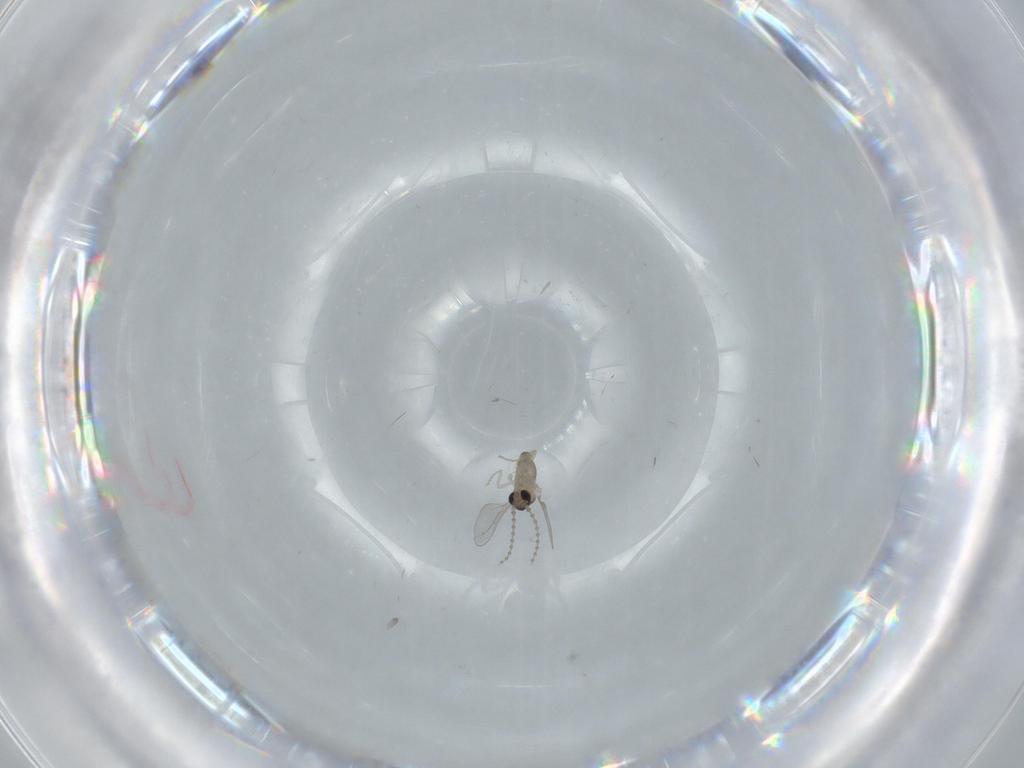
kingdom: Animalia
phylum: Arthropoda
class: Insecta
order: Diptera
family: Cecidomyiidae
